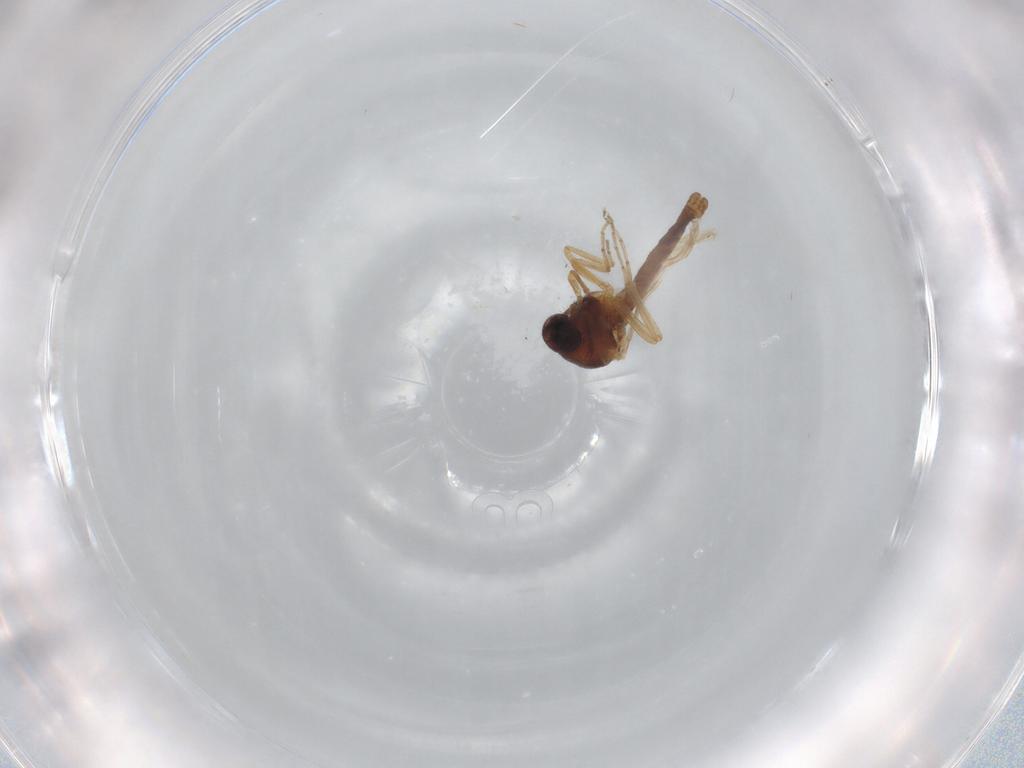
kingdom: Animalia
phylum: Arthropoda
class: Insecta
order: Diptera
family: Ceratopogonidae
